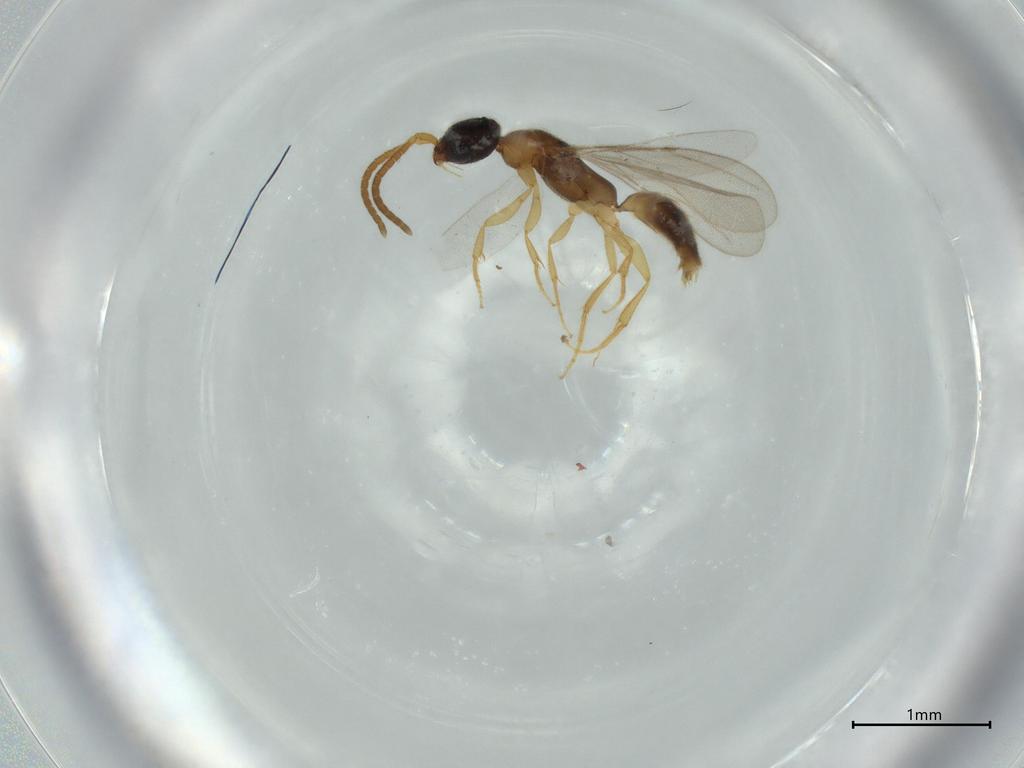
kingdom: Animalia
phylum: Arthropoda
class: Insecta
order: Hymenoptera
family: Bethylidae
